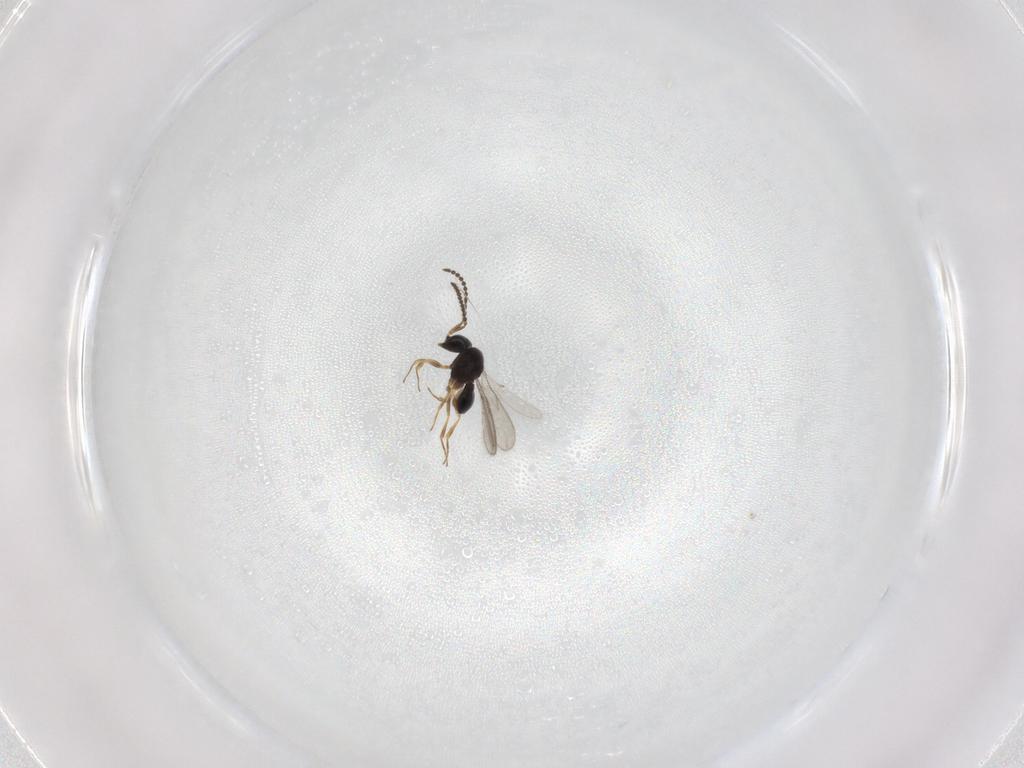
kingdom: Animalia
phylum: Arthropoda
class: Insecta
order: Hymenoptera
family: Scelionidae
